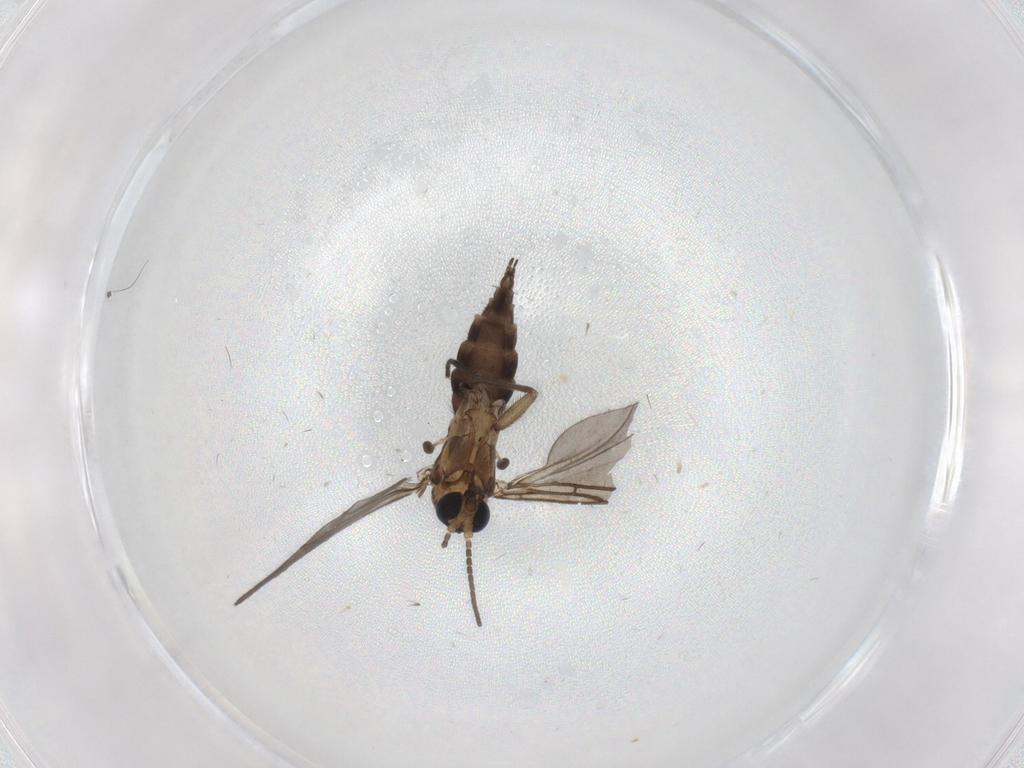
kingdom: Animalia
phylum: Arthropoda
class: Insecta
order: Diptera
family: Sciaridae
